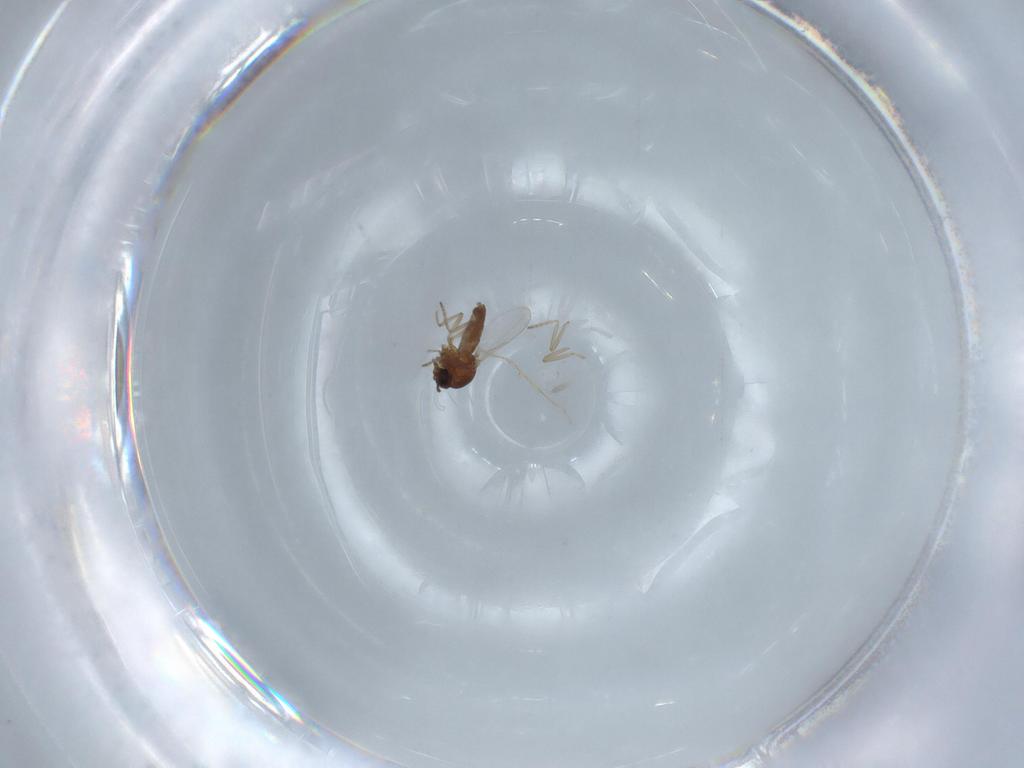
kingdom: Animalia
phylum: Arthropoda
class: Insecta
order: Diptera
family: Ceratopogonidae
